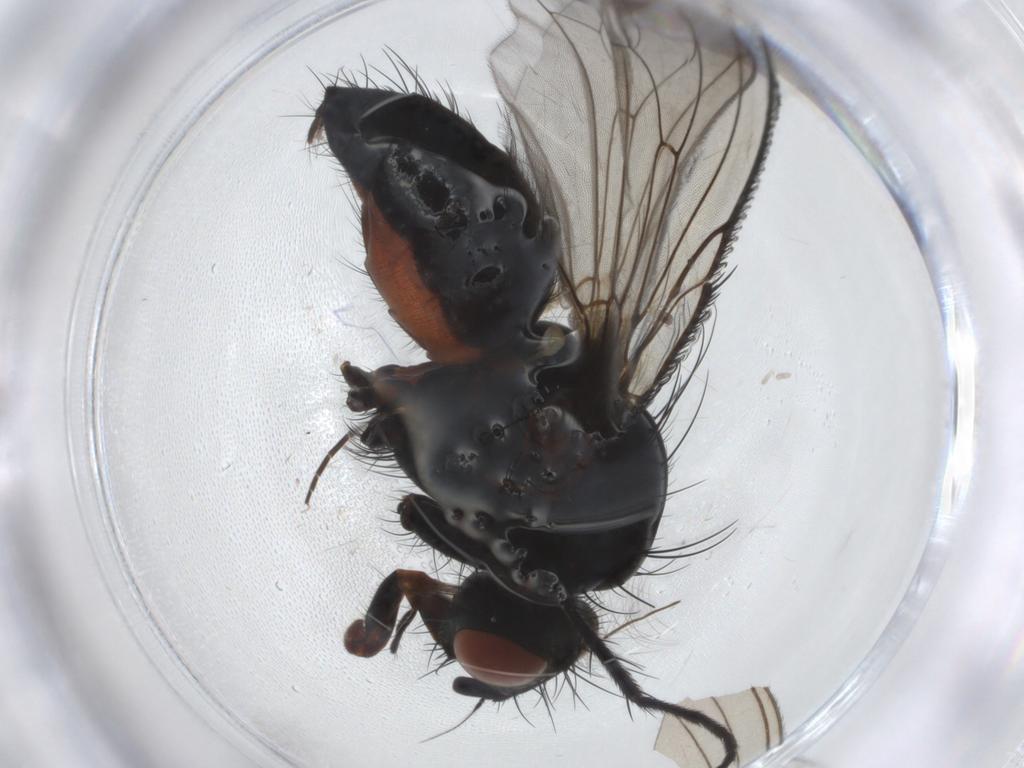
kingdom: Animalia
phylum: Arthropoda
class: Insecta
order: Diptera
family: Anthomyiidae
